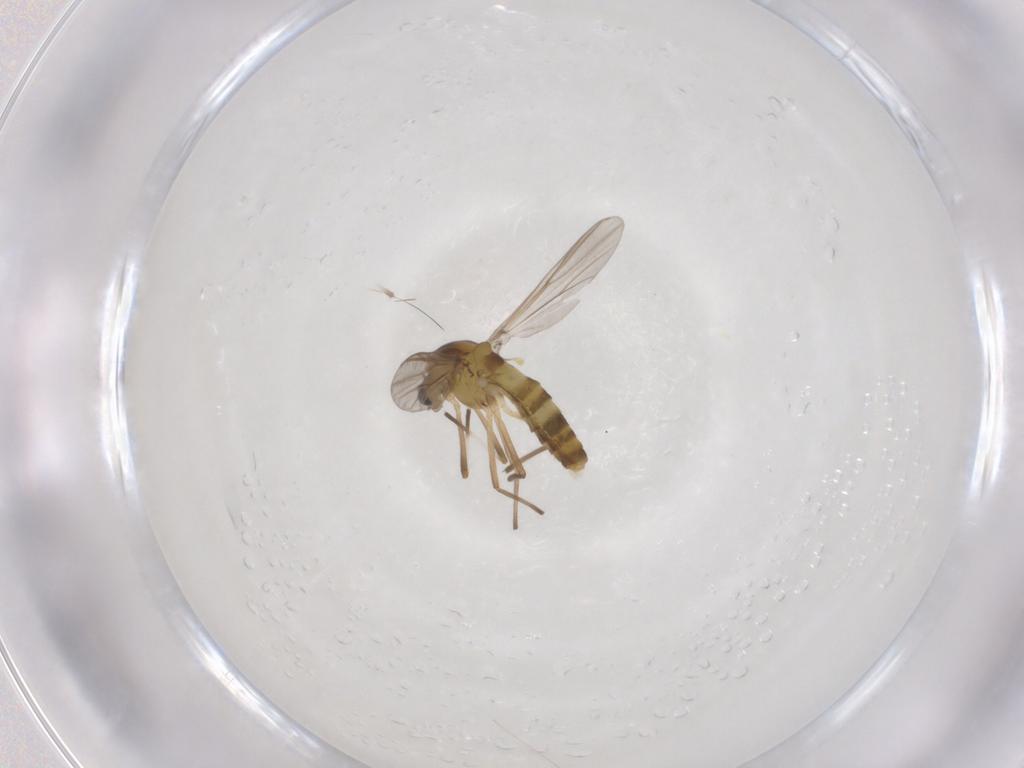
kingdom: Animalia
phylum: Arthropoda
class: Insecta
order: Diptera
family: Chironomidae
